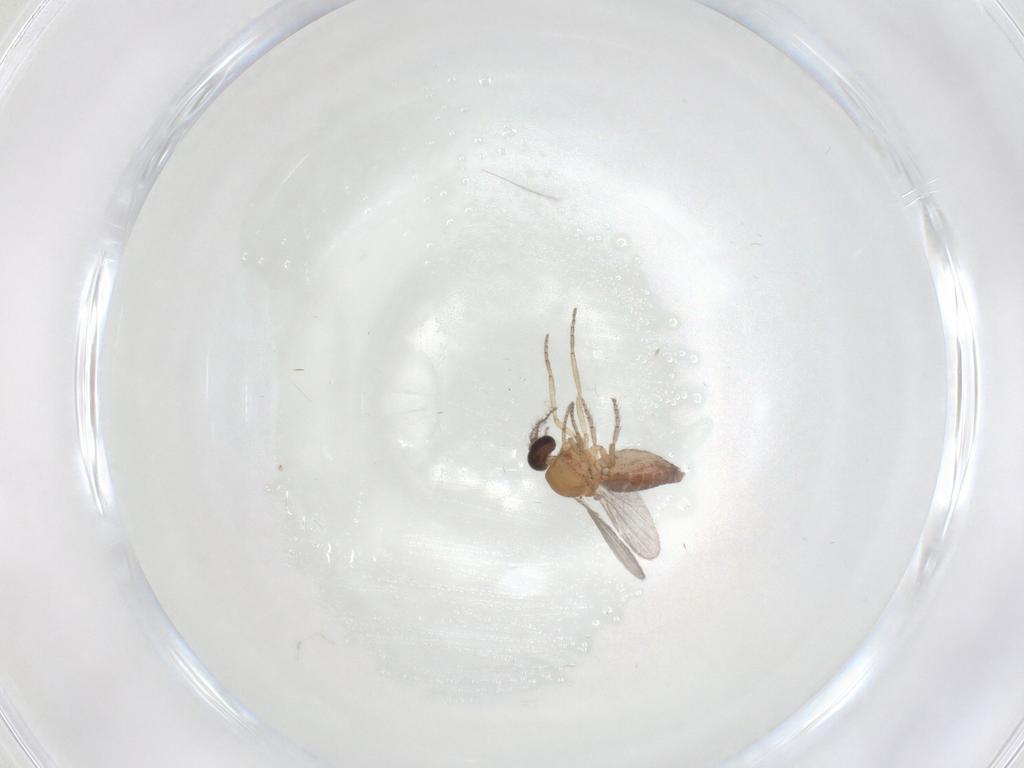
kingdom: Animalia
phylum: Arthropoda
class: Insecta
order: Diptera
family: Ceratopogonidae
